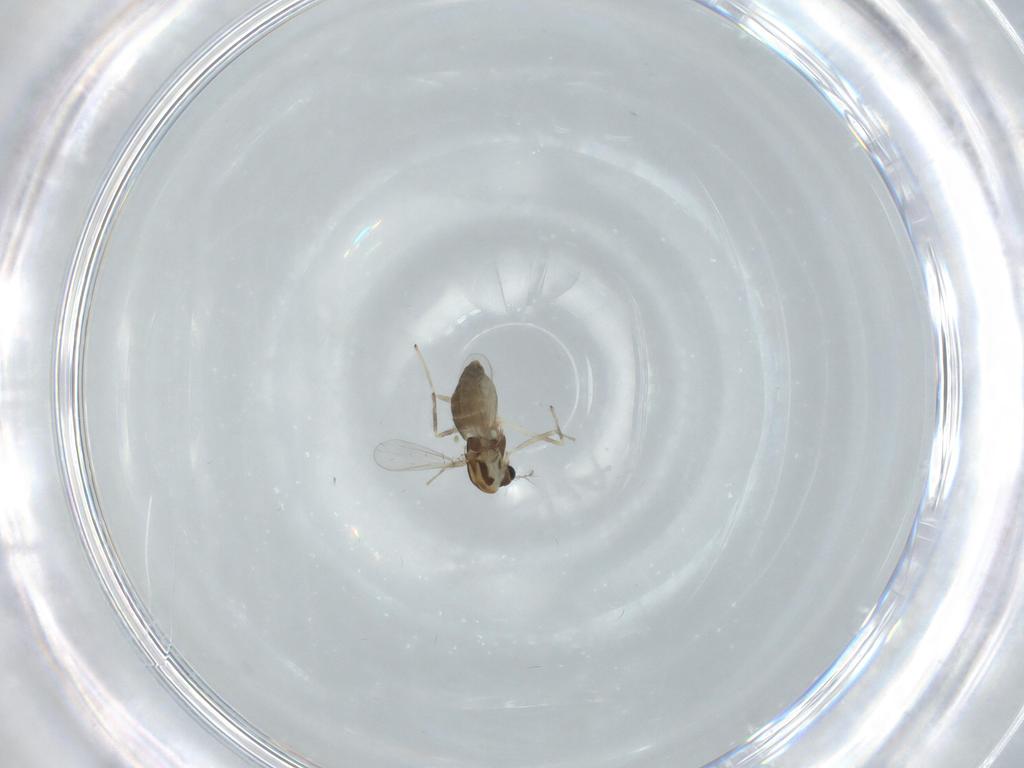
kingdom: Animalia
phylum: Arthropoda
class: Insecta
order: Diptera
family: Chironomidae
